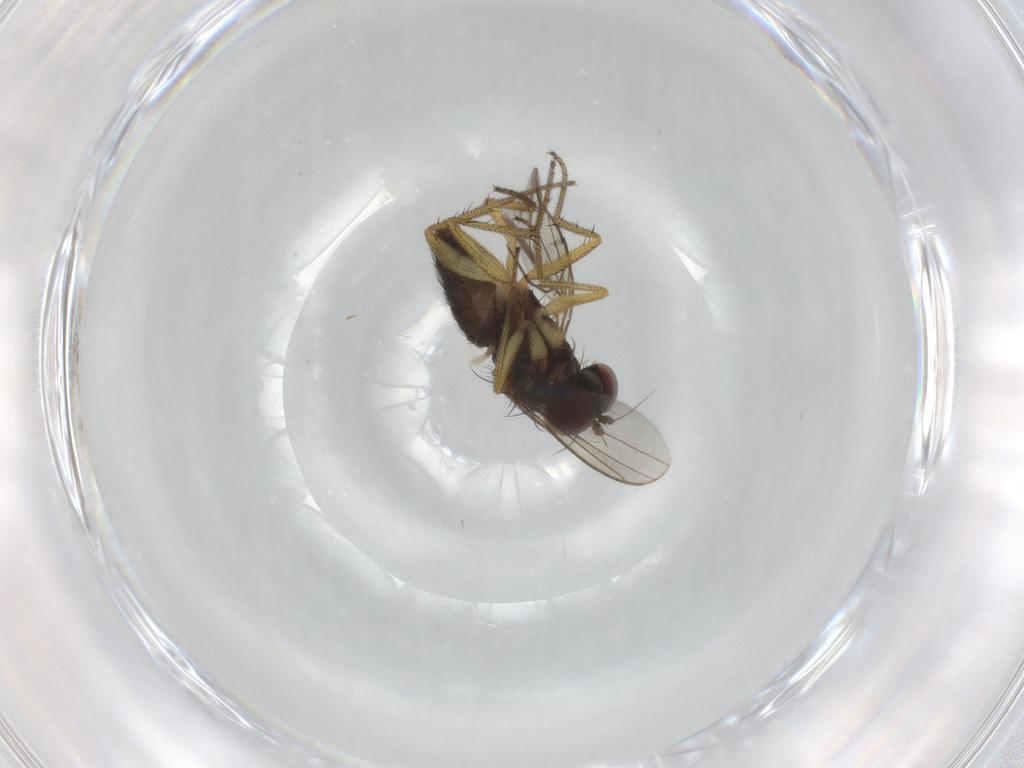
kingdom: Animalia
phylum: Arthropoda
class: Insecta
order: Diptera
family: Dolichopodidae
